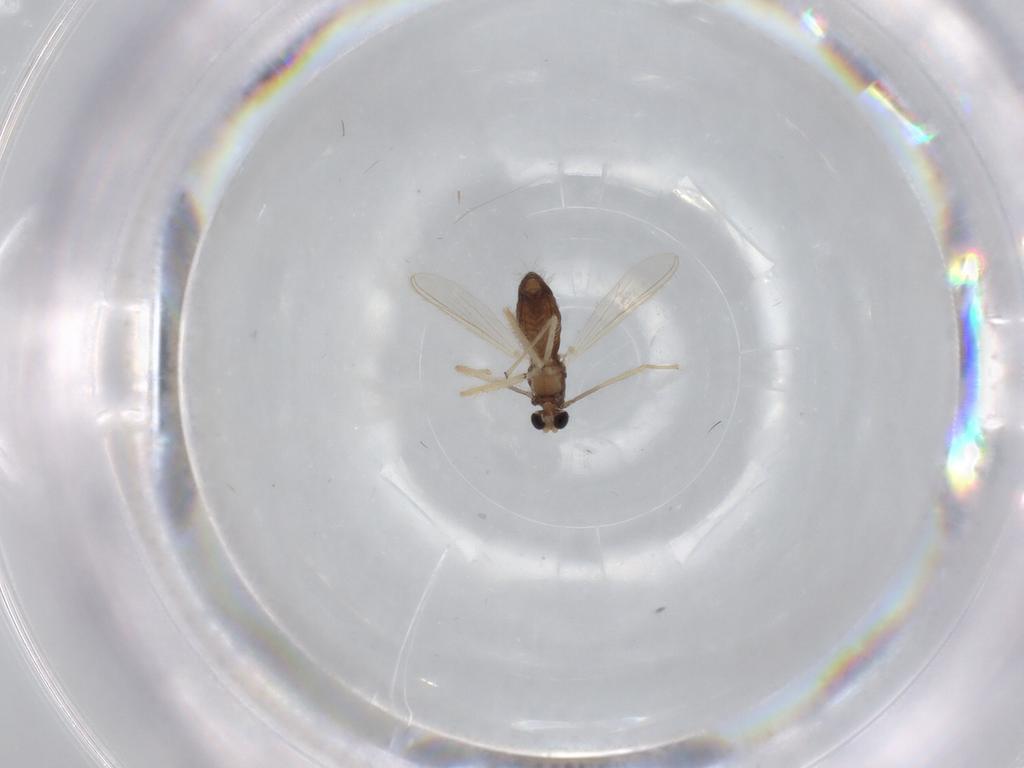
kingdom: Animalia
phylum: Arthropoda
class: Insecta
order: Diptera
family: Chironomidae
